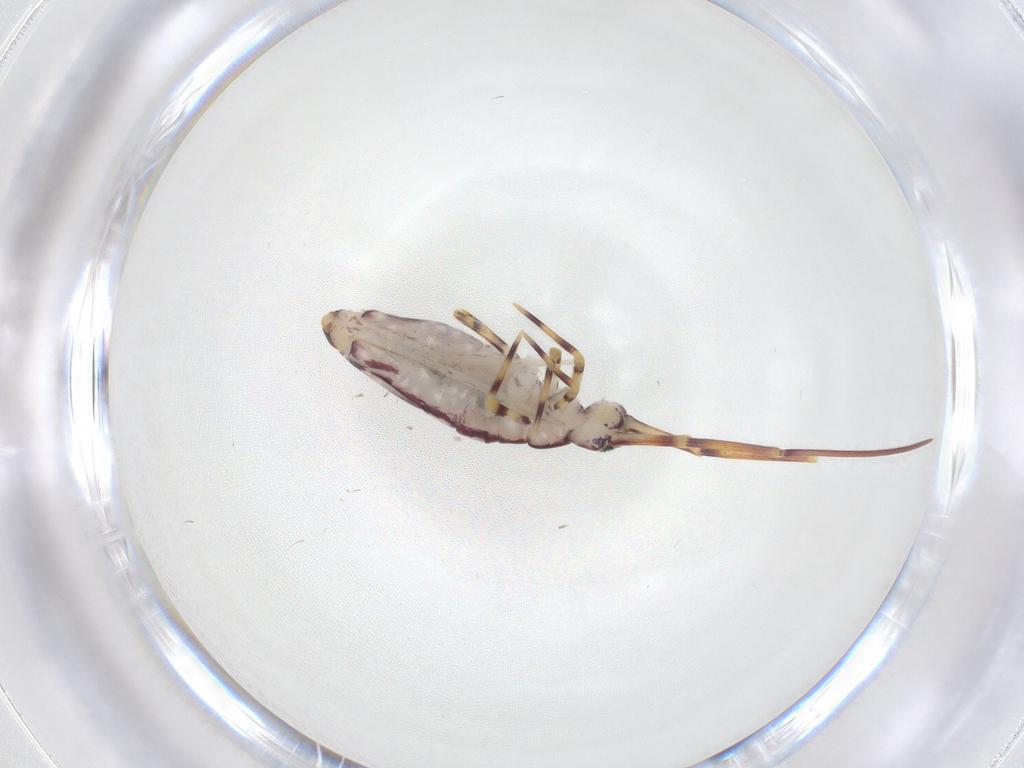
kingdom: Animalia
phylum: Arthropoda
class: Collembola
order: Entomobryomorpha
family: Entomobryidae
